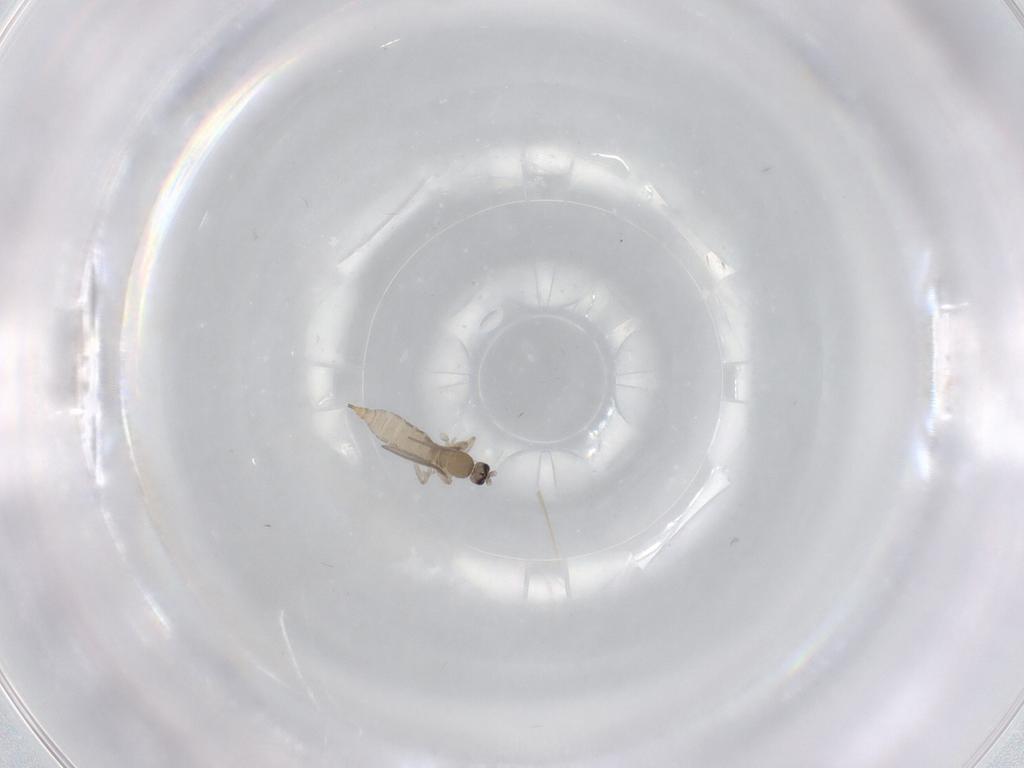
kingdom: Animalia
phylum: Arthropoda
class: Insecta
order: Diptera
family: Cecidomyiidae
